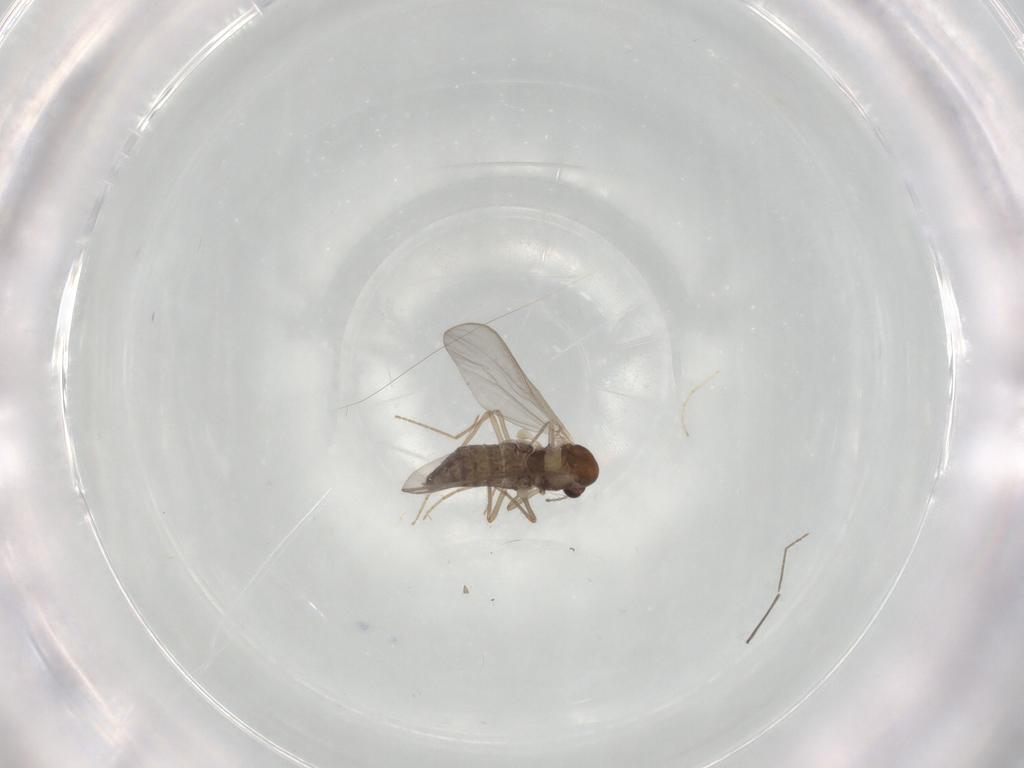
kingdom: Animalia
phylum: Arthropoda
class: Insecta
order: Diptera
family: Chironomidae
